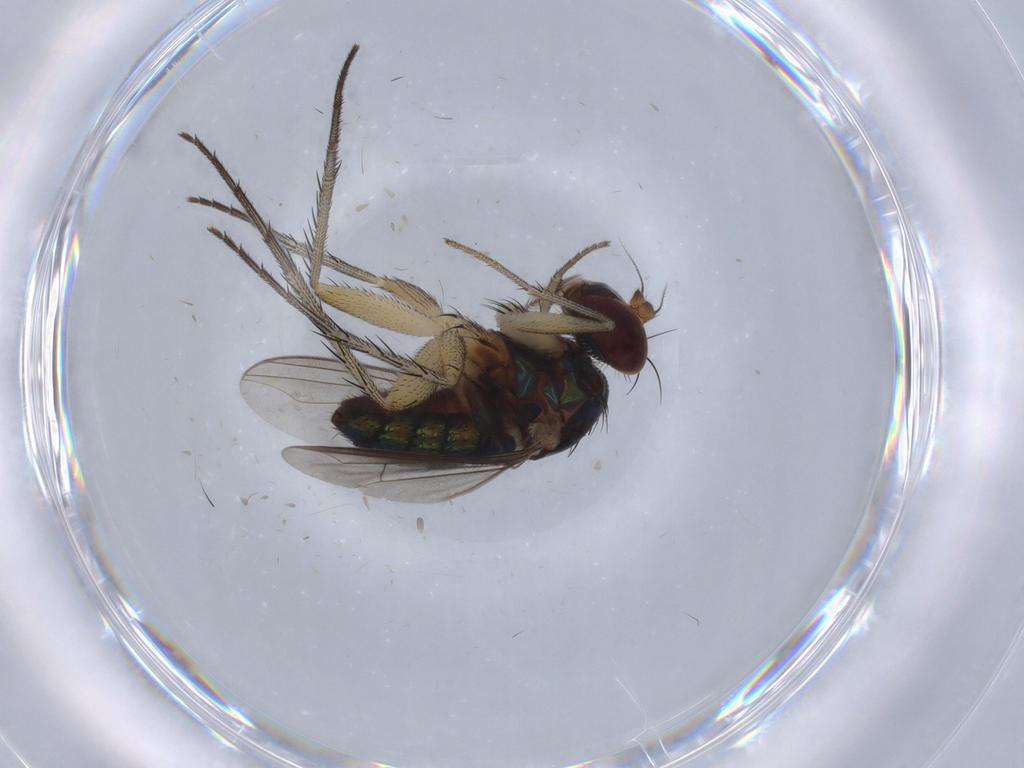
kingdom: Animalia
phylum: Arthropoda
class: Insecta
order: Diptera
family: Dolichopodidae
